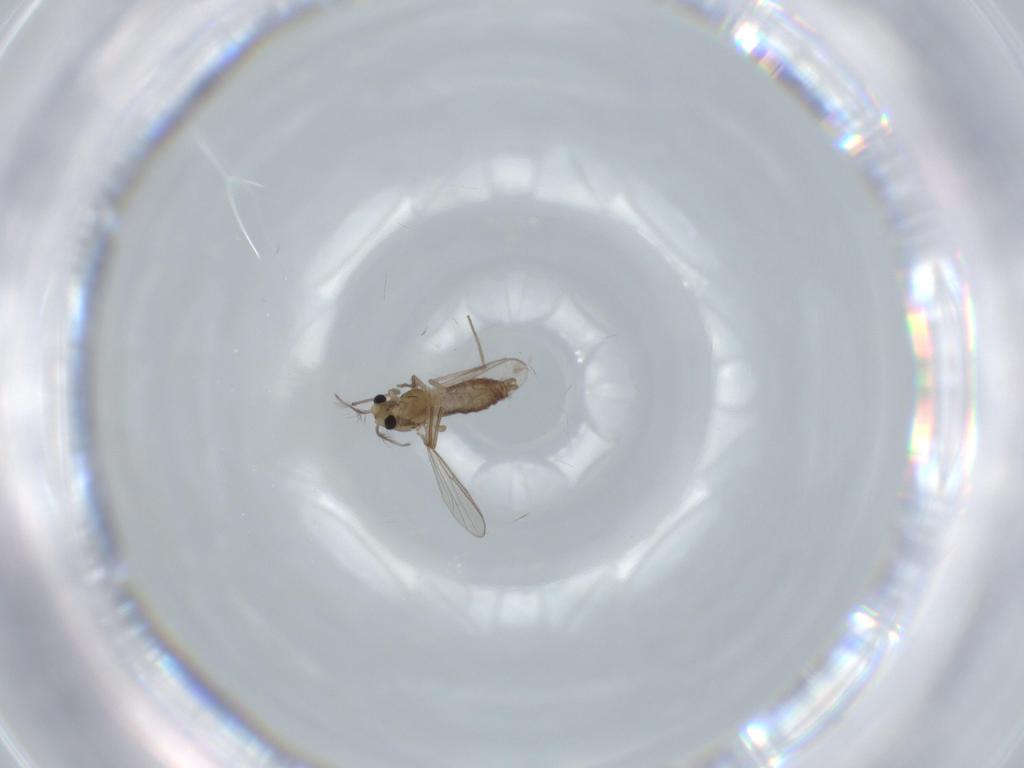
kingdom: Animalia
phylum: Arthropoda
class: Insecta
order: Diptera
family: Chironomidae
